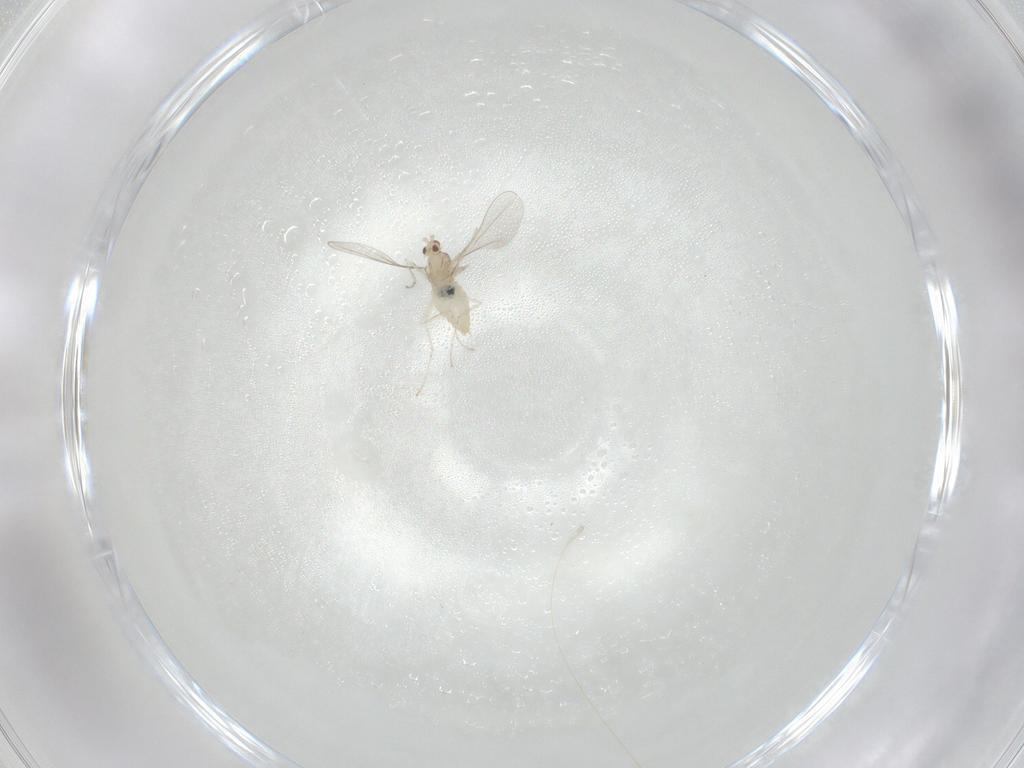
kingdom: Animalia
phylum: Arthropoda
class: Insecta
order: Diptera
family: Cecidomyiidae
